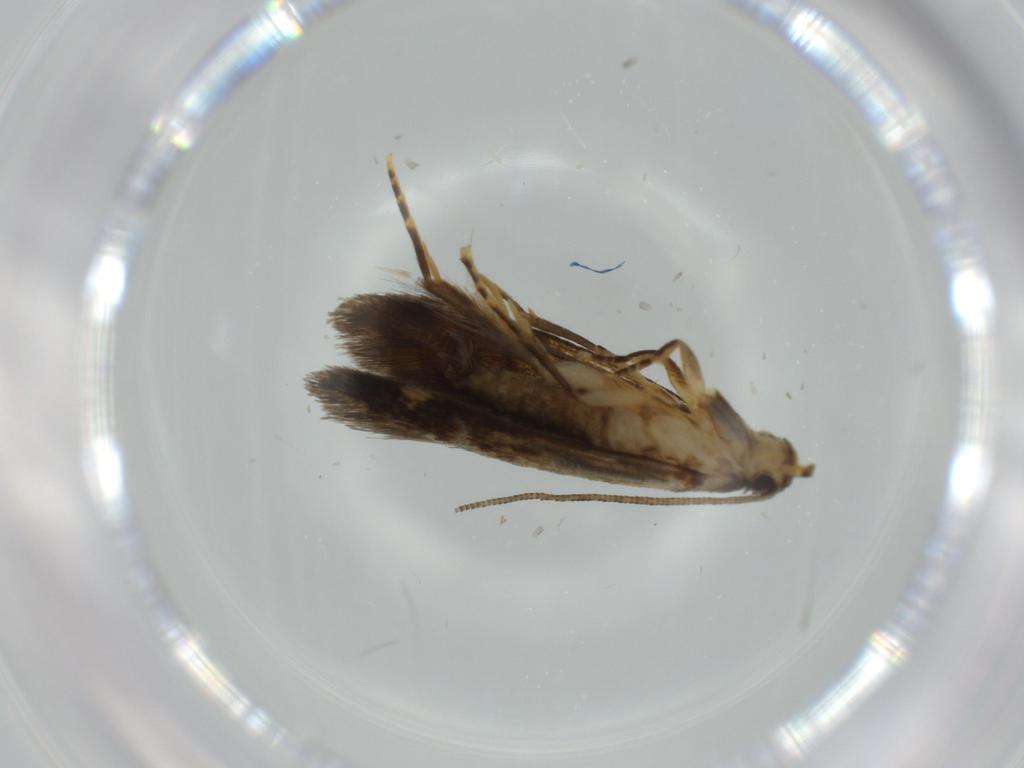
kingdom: Animalia
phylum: Arthropoda
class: Insecta
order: Lepidoptera
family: Tineidae
